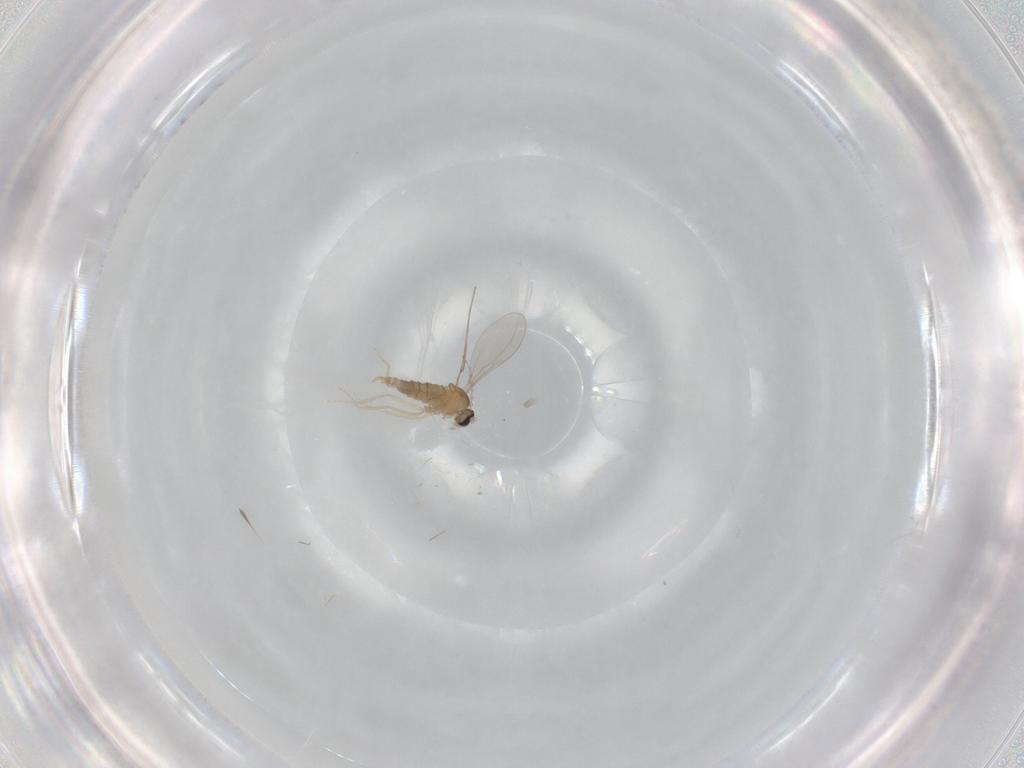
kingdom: Animalia
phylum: Arthropoda
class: Insecta
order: Diptera
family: Cecidomyiidae
